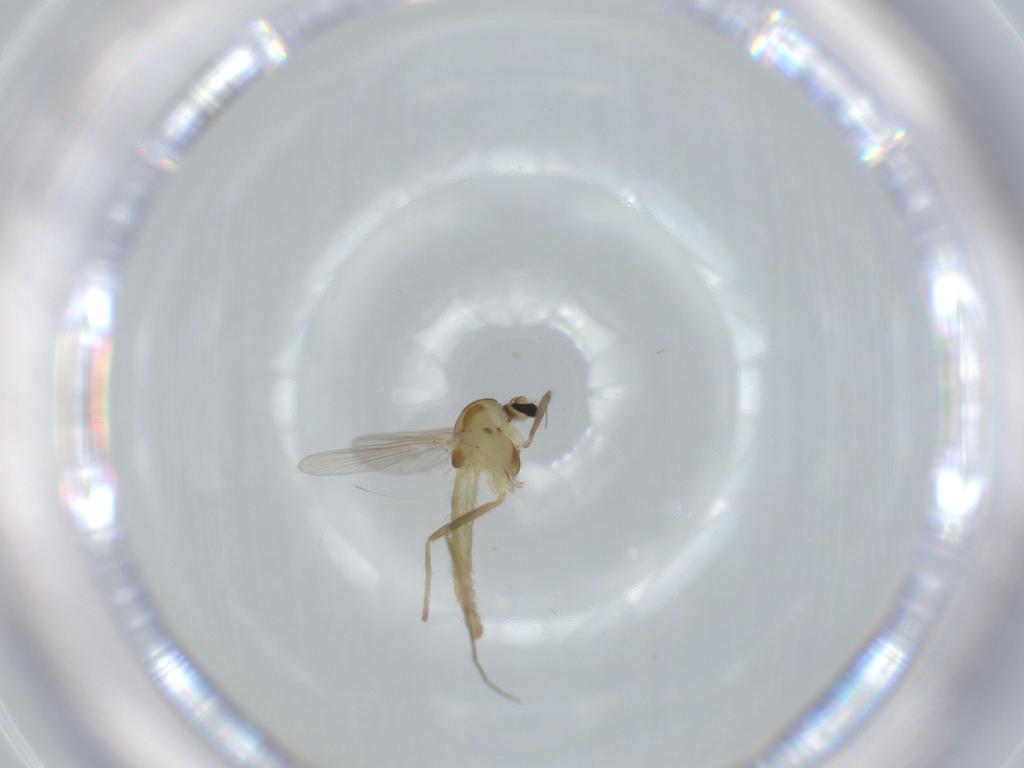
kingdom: Animalia
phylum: Arthropoda
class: Insecta
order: Diptera
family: Chironomidae
